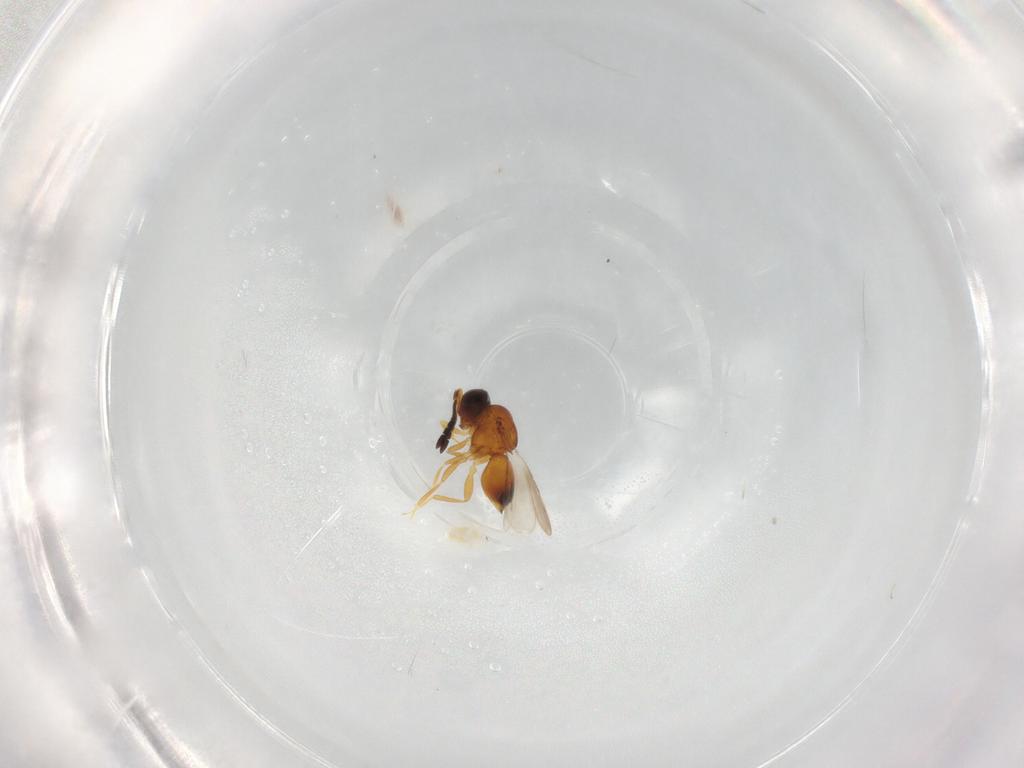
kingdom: Animalia
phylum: Arthropoda
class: Insecta
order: Hymenoptera
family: Ceraphronidae
